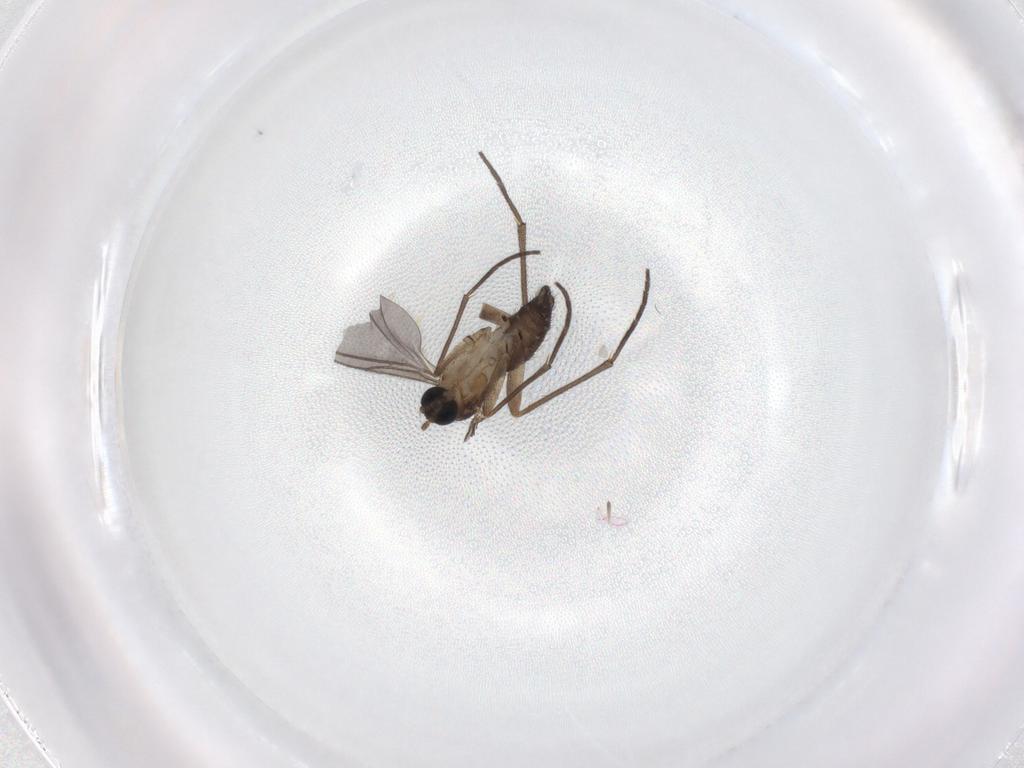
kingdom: Animalia
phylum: Arthropoda
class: Insecta
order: Diptera
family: Sciaridae
